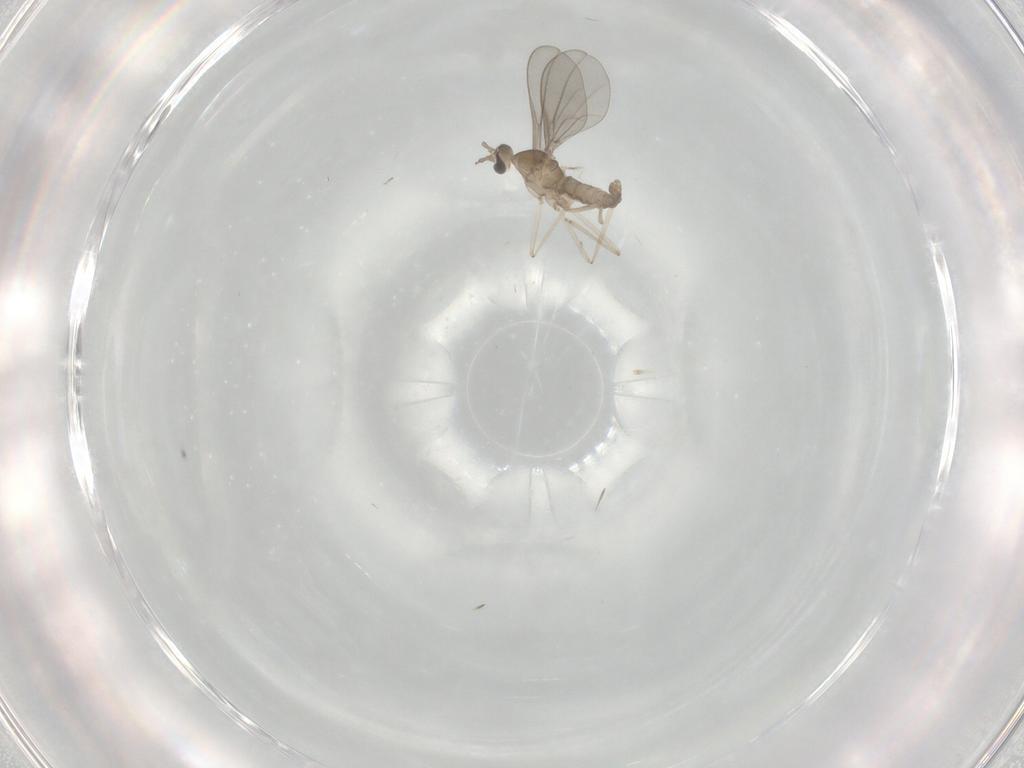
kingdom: Animalia
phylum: Arthropoda
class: Insecta
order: Diptera
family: Cecidomyiidae
